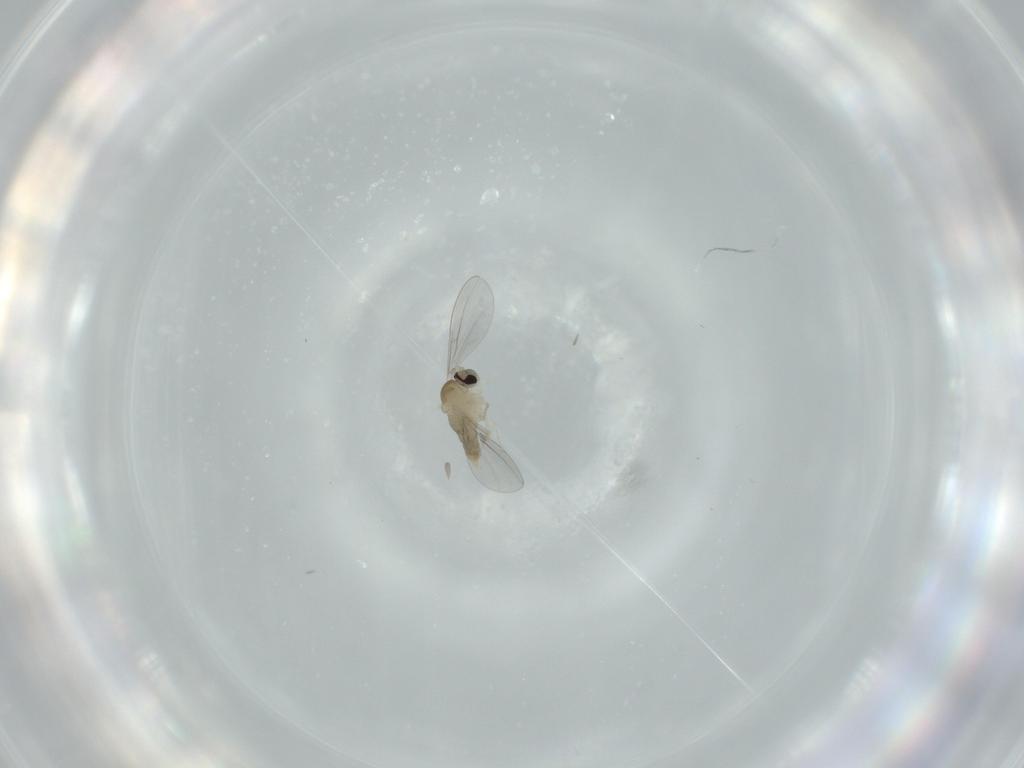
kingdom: Animalia
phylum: Arthropoda
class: Insecta
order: Diptera
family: Cecidomyiidae
